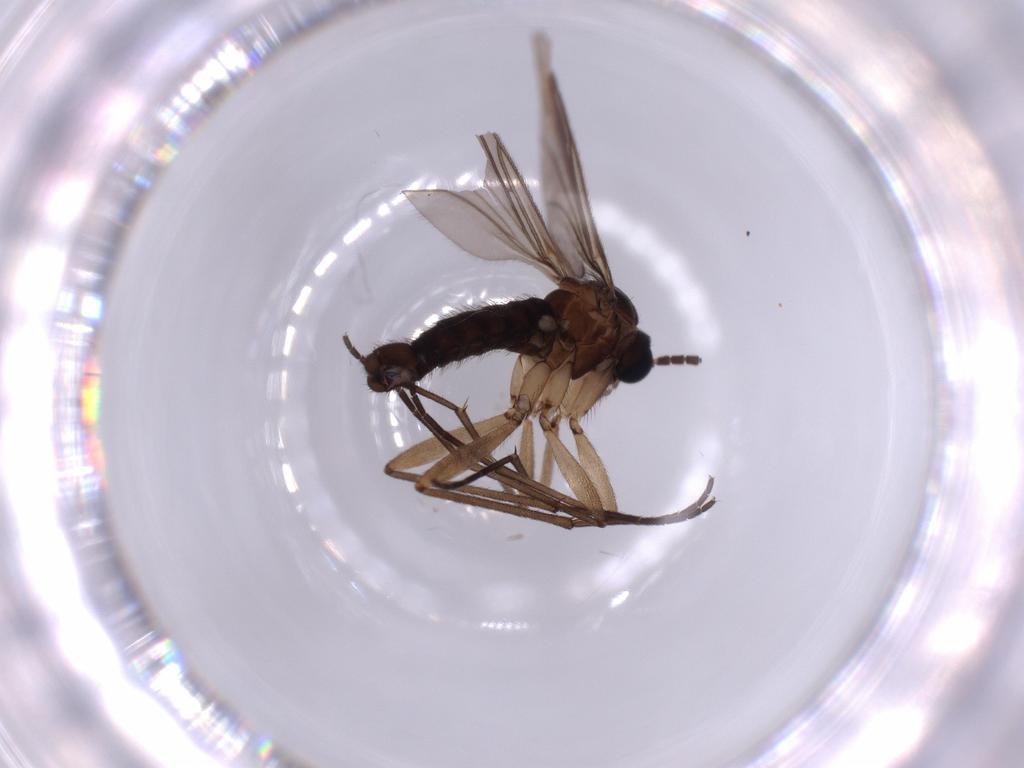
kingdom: Animalia
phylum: Arthropoda
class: Insecta
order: Diptera
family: Sciaridae
